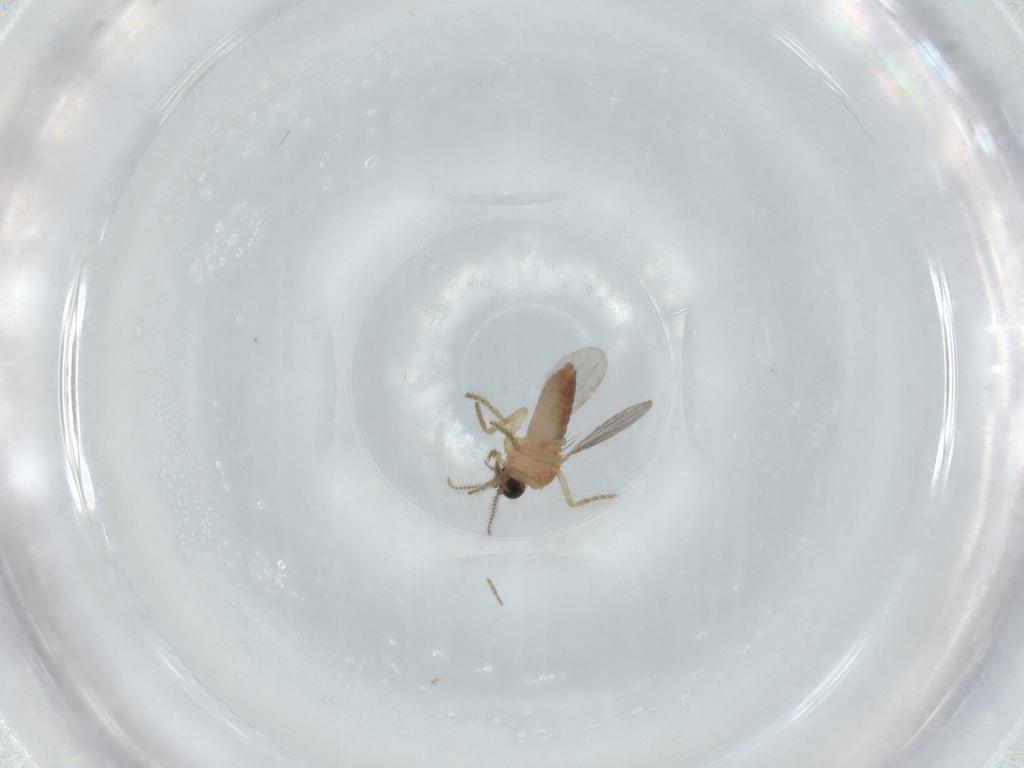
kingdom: Animalia
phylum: Arthropoda
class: Insecta
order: Diptera
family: Ceratopogonidae
